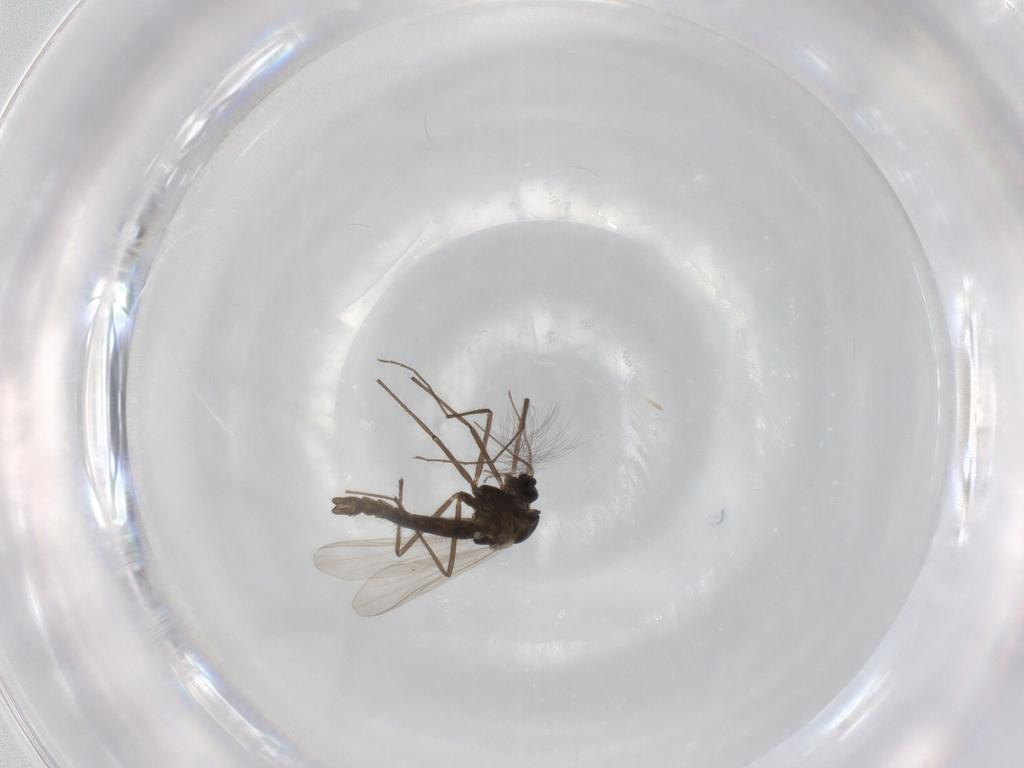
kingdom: Animalia
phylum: Arthropoda
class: Insecta
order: Diptera
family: Chironomidae
